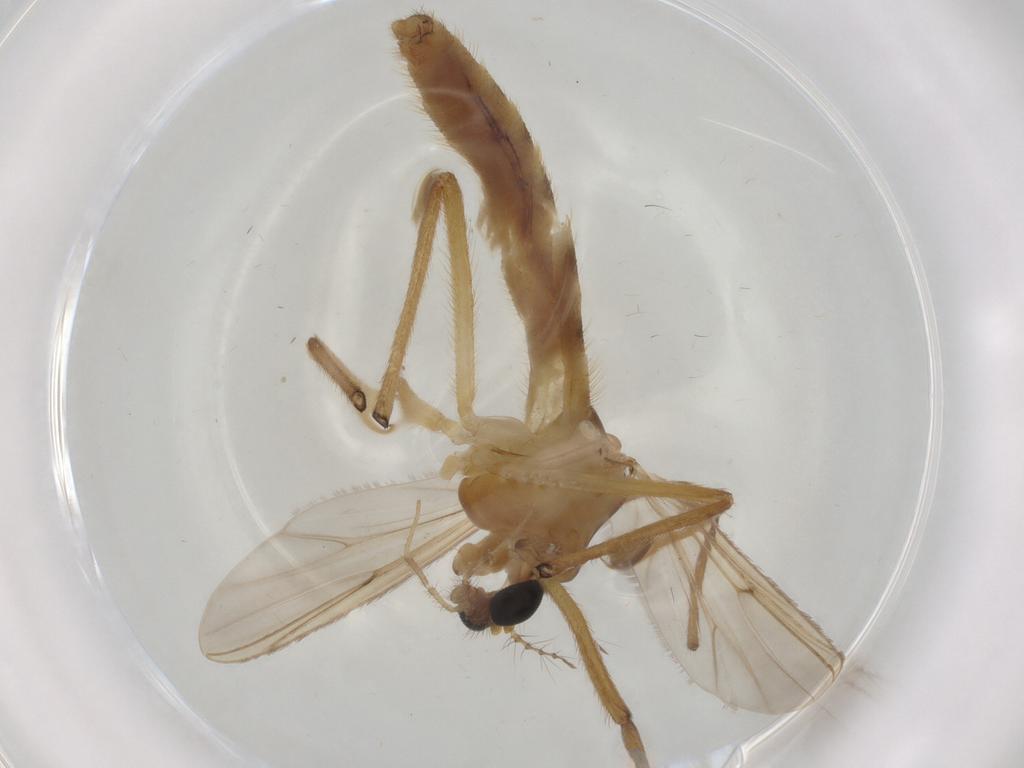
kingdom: Animalia
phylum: Arthropoda
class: Insecta
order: Diptera
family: Chironomidae
